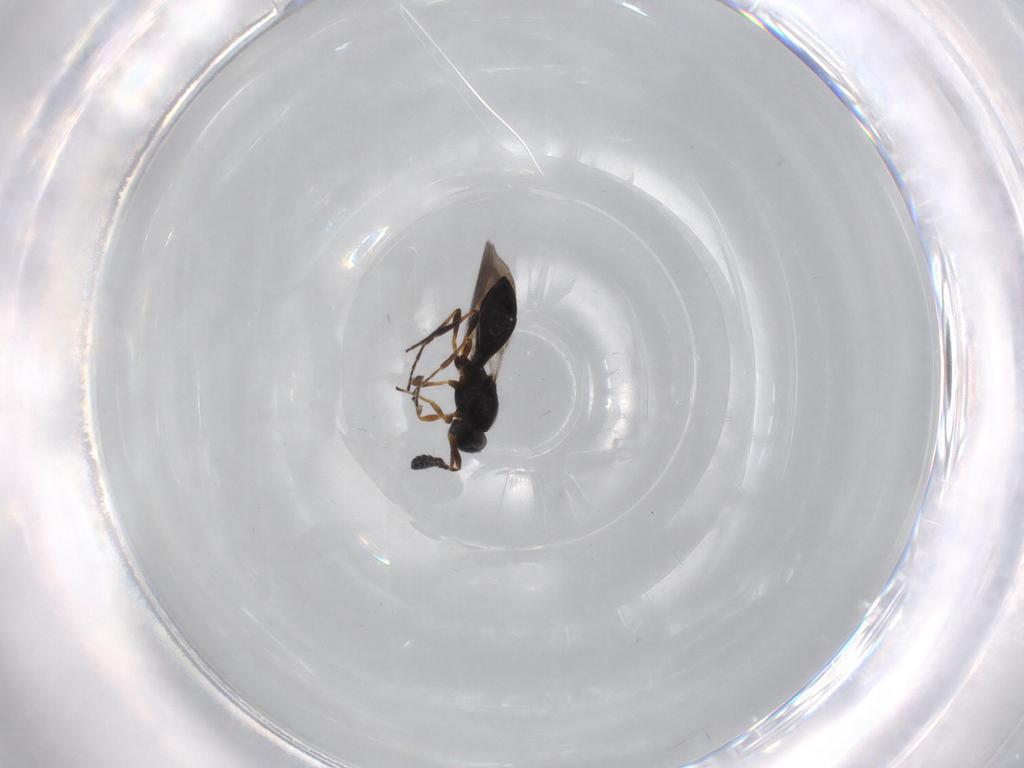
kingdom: Animalia
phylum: Arthropoda
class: Insecta
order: Hymenoptera
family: Platygastridae
